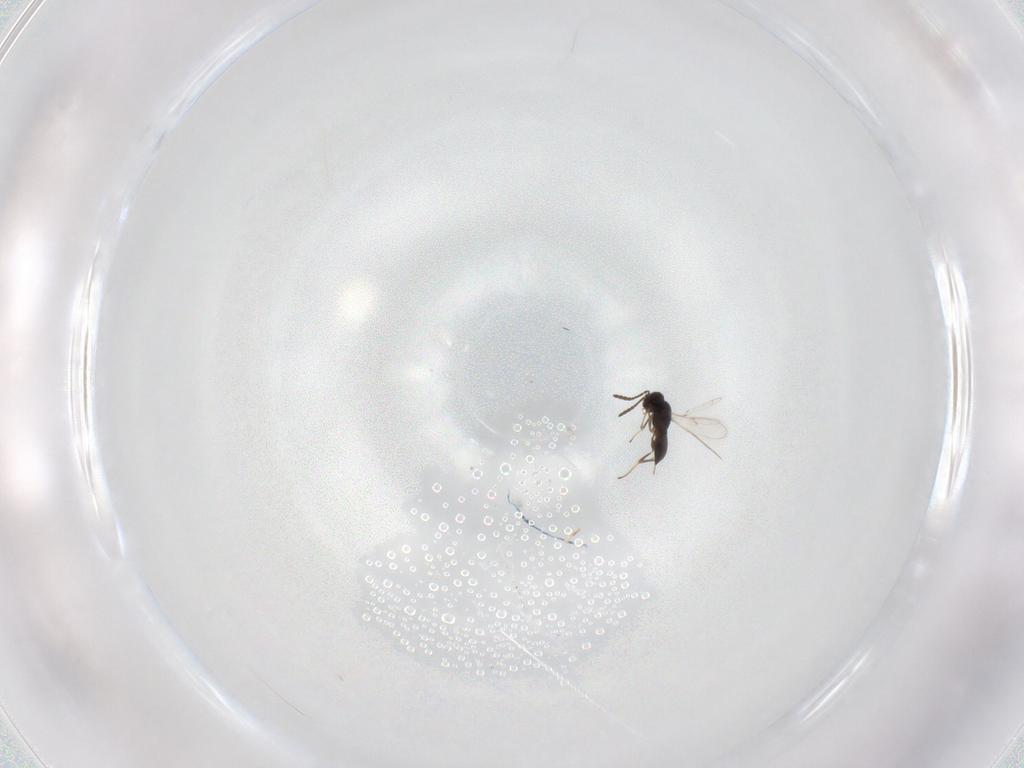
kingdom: Animalia
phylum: Arthropoda
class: Insecta
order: Hymenoptera
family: Scelionidae
